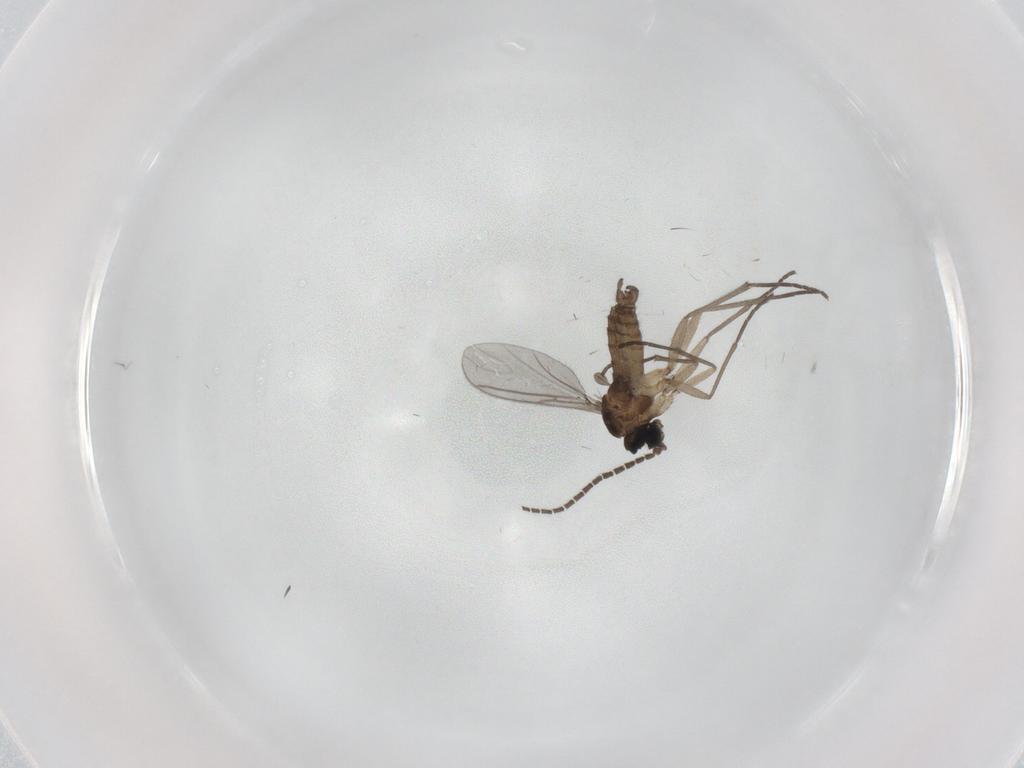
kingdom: Animalia
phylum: Arthropoda
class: Insecta
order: Diptera
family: Sciaridae
